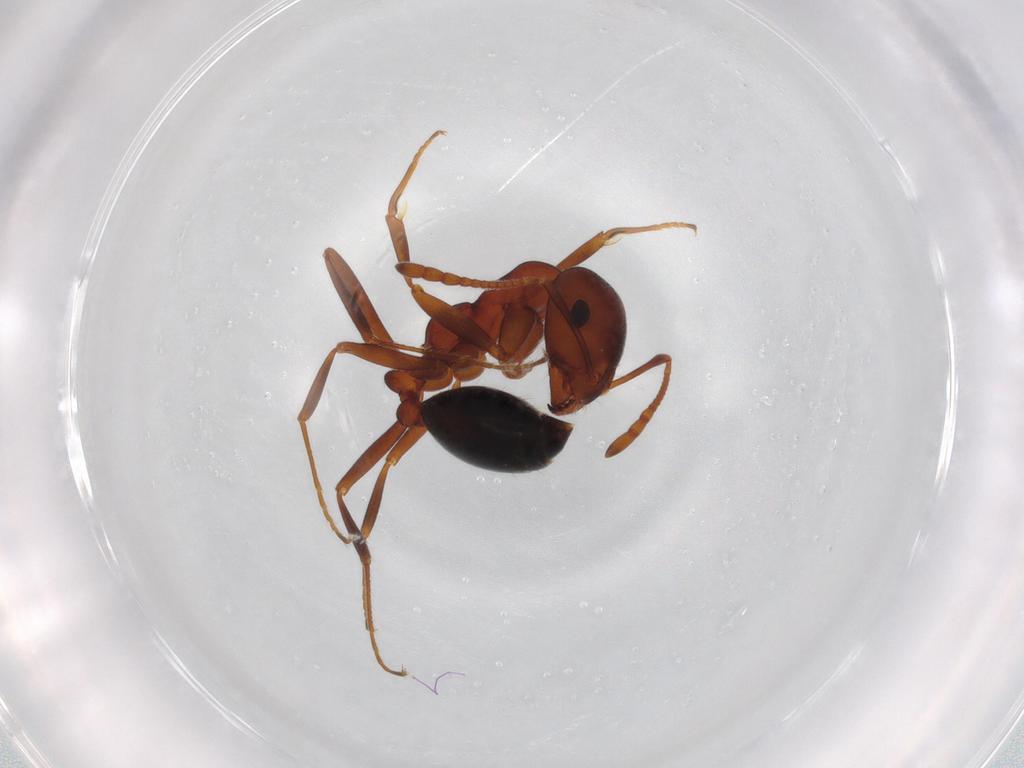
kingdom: Animalia
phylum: Arthropoda
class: Insecta
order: Hymenoptera
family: Formicidae
